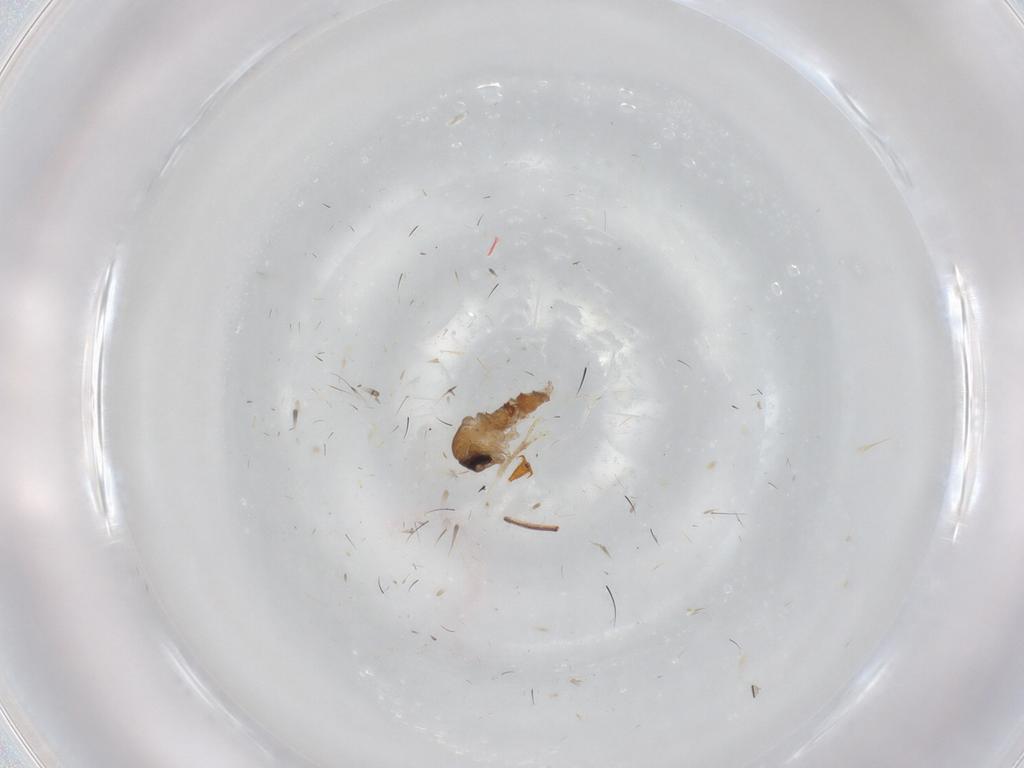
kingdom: Animalia
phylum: Arthropoda
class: Insecta
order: Diptera
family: Psychodidae
